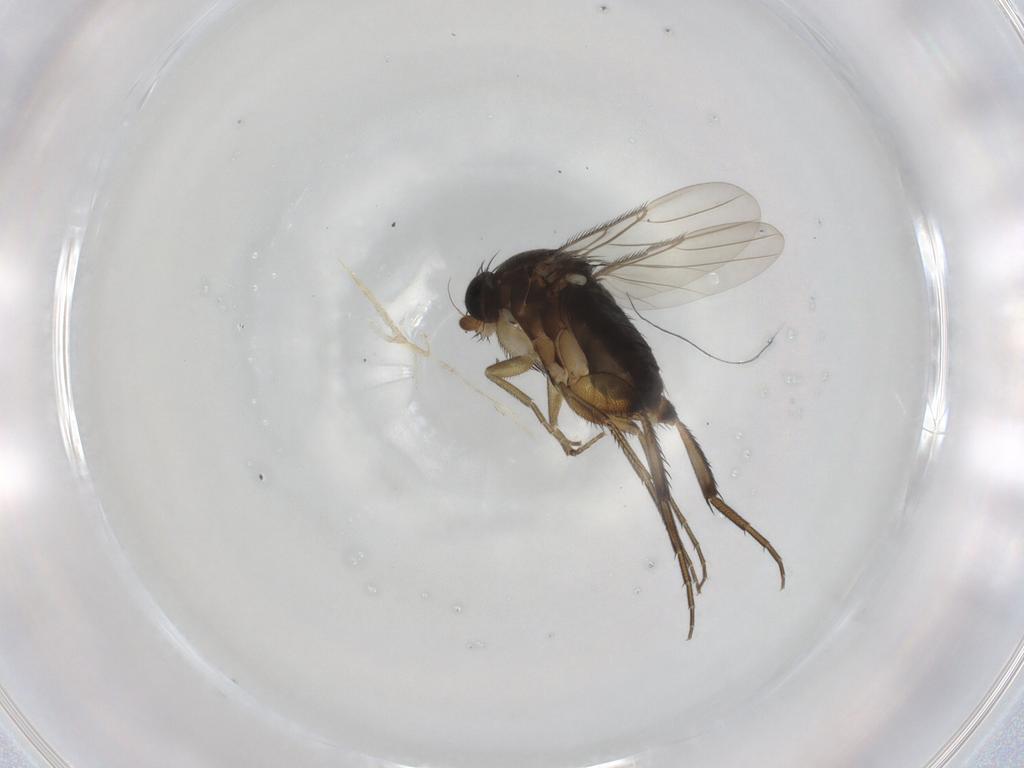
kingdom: Animalia
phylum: Arthropoda
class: Insecta
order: Diptera
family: Phoridae
